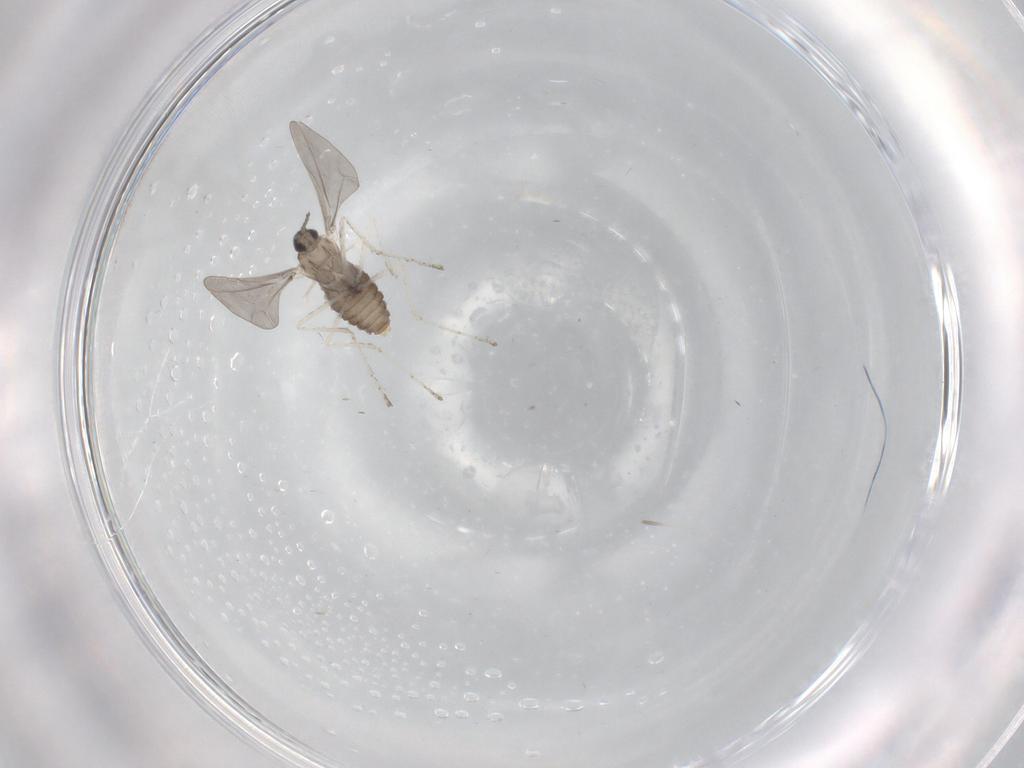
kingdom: Animalia
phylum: Arthropoda
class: Insecta
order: Diptera
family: Cecidomyiidae
